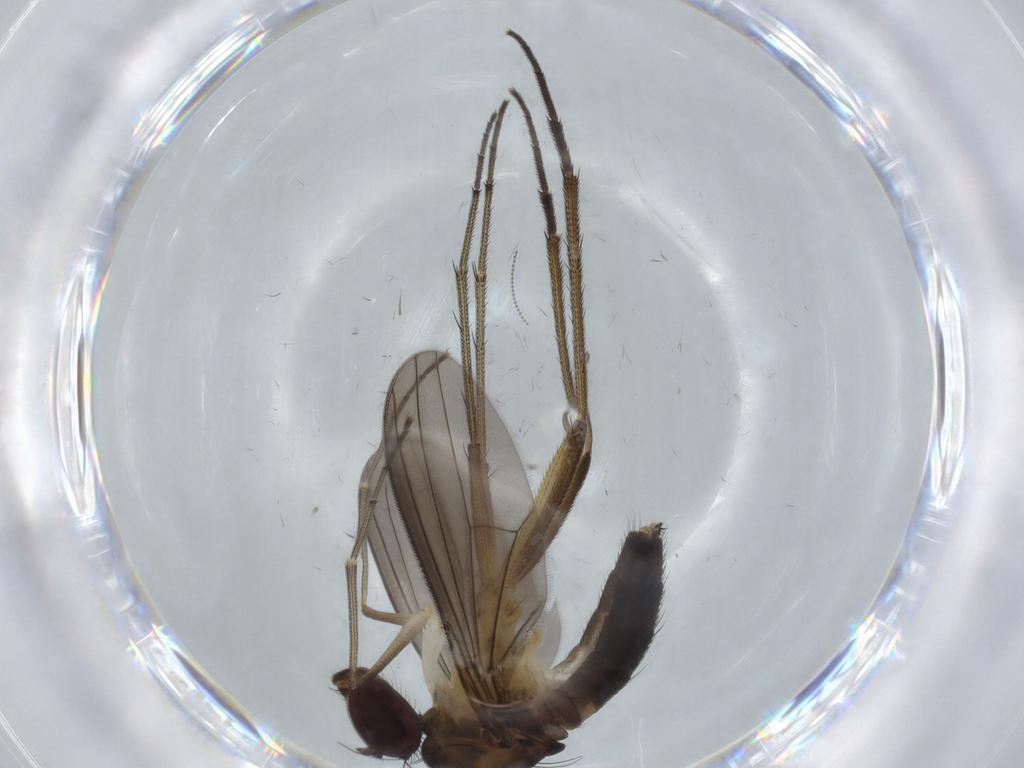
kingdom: Animalia
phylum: Arthropoda
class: Insecta
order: Diptera
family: Dolichopodidae
